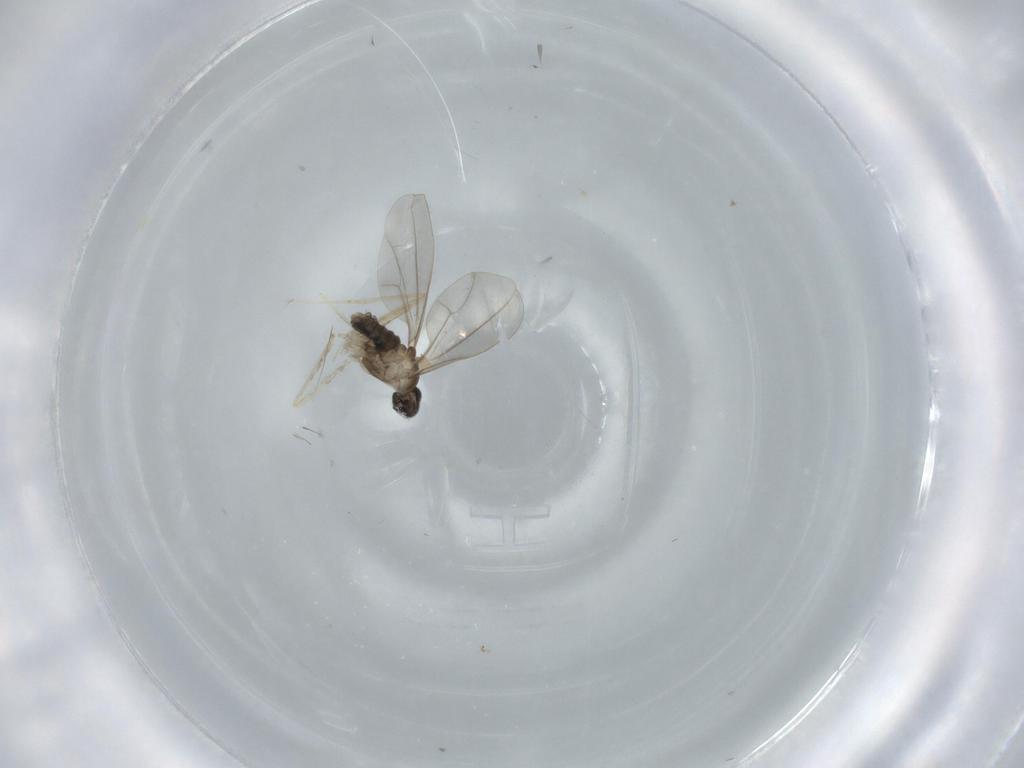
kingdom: Animalia
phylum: Arthropoda
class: Insecta
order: Diptera
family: Cecidomyiidae
